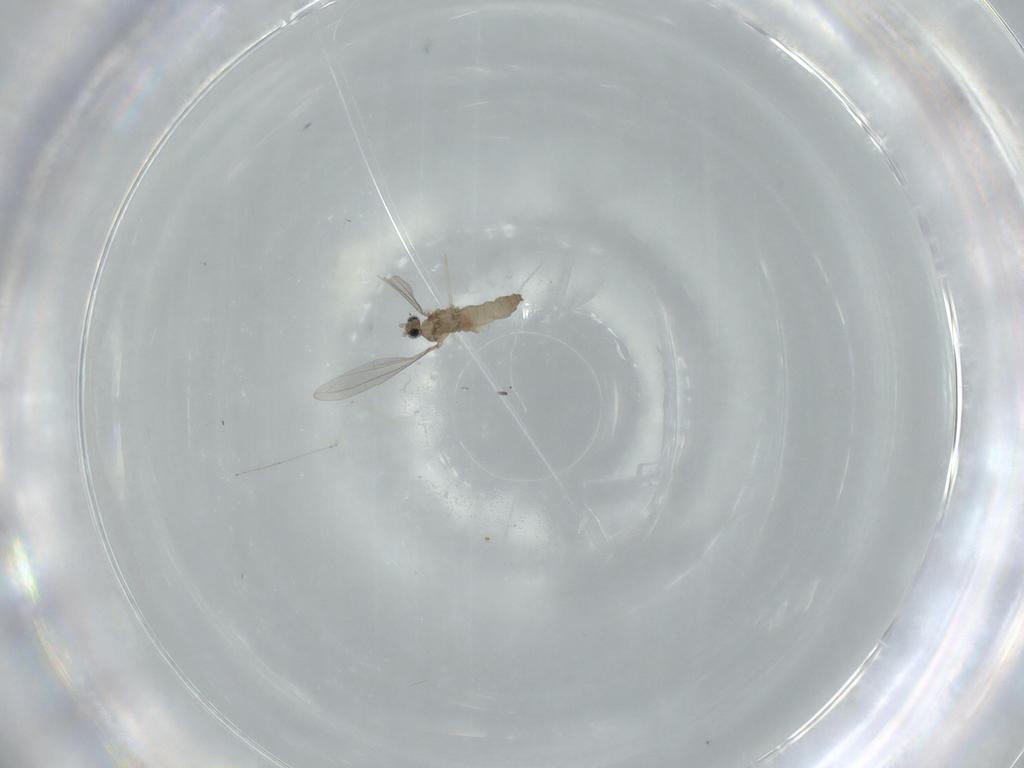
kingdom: Animalia
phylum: Arthropoda
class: Insecta
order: Diptera
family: Cecidomyiidae
